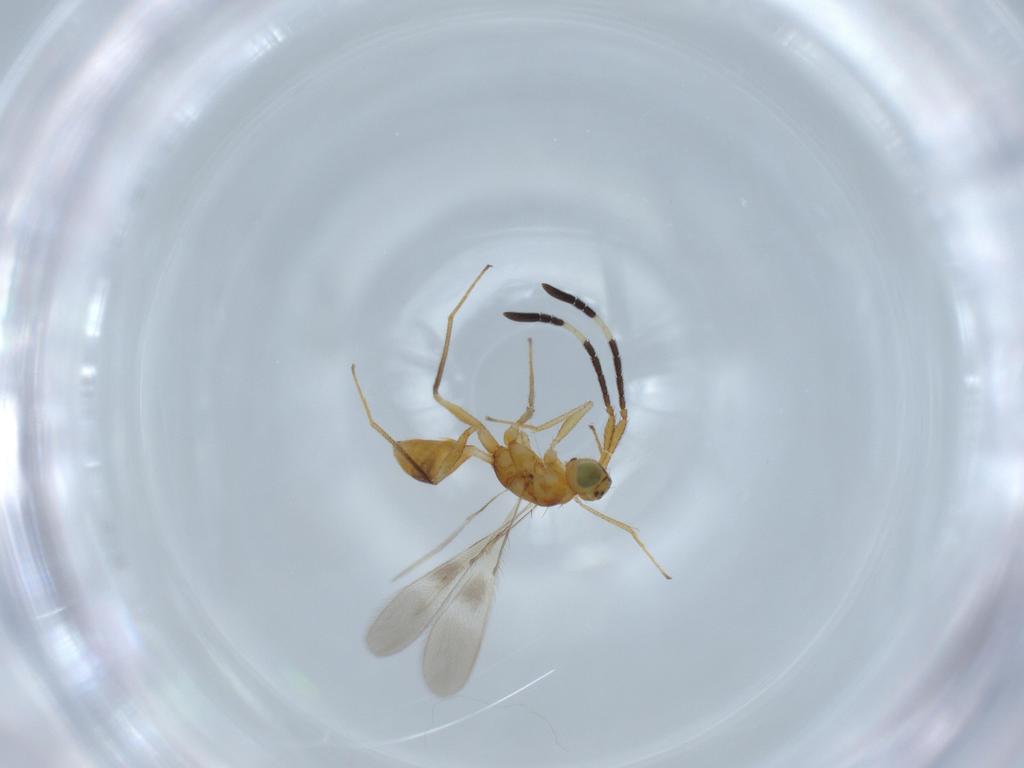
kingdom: Animalia
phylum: Arthropoda
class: Insecta
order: Hymenoptera
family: Mymaridae
